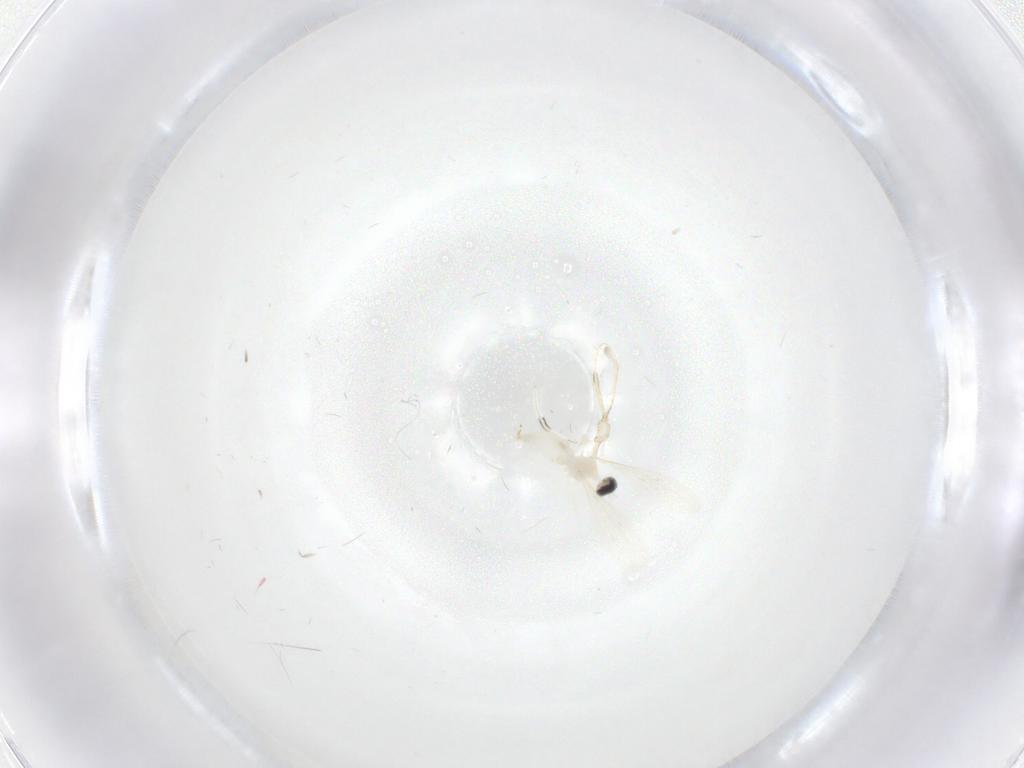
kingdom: Animalia
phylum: Arthropoda
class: Insecta
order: Diptera
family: Cecidomyiidae
